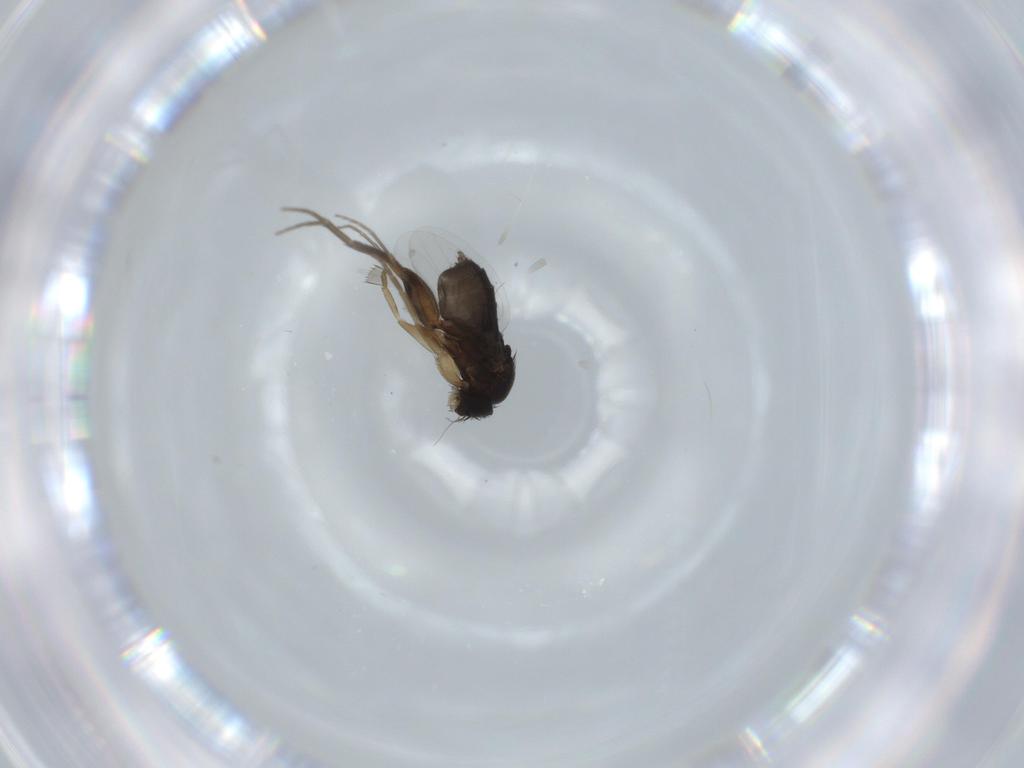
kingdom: Animalia
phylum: Arthropoda
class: Insecta
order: Diptera
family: Phoridae
